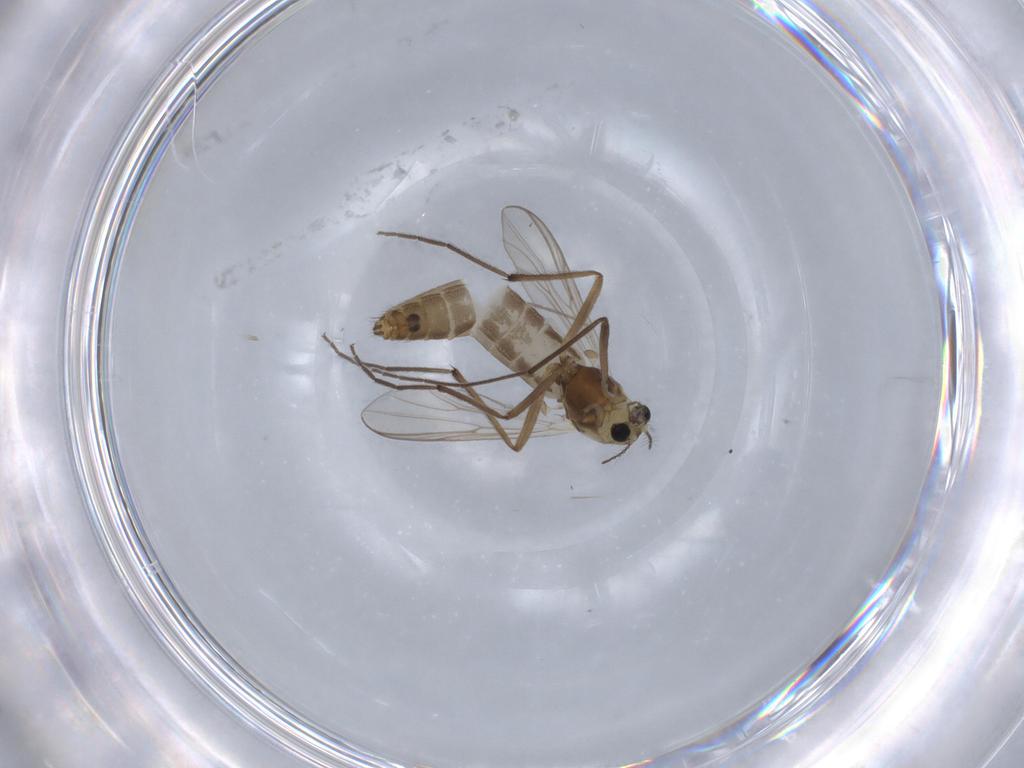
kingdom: Animalia
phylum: Arthropoda
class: Insecta
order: Diptera
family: Chironomidae
